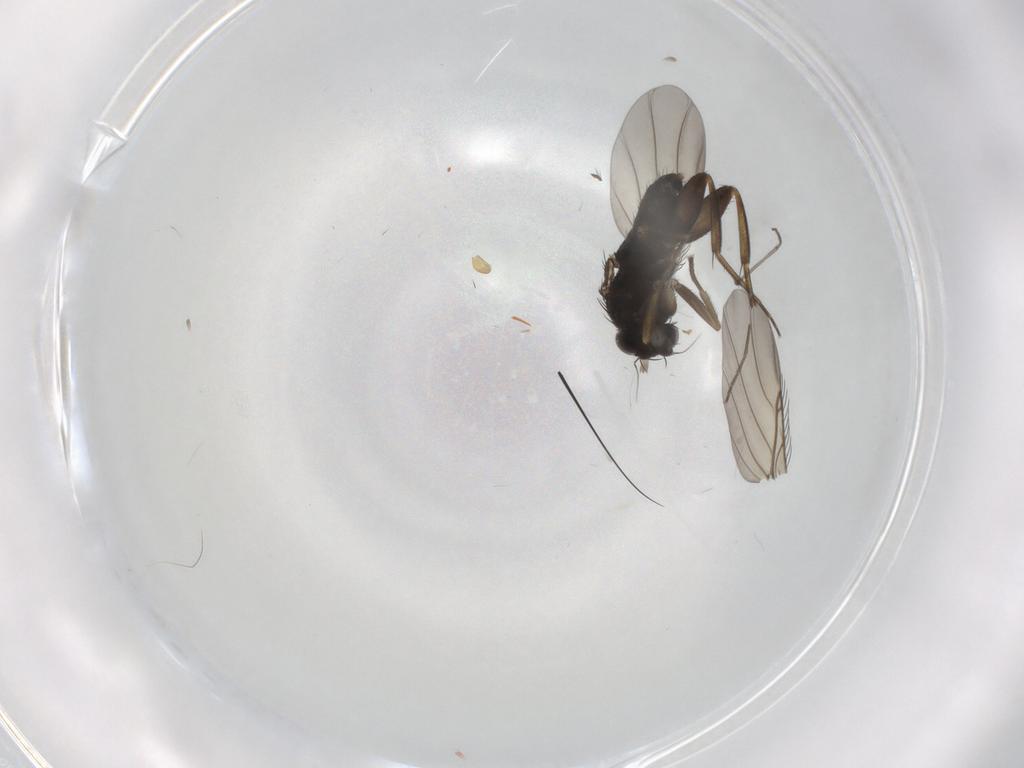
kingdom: Animalia
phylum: Arthropoda
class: Insecta
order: Diptera
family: Phoridae
